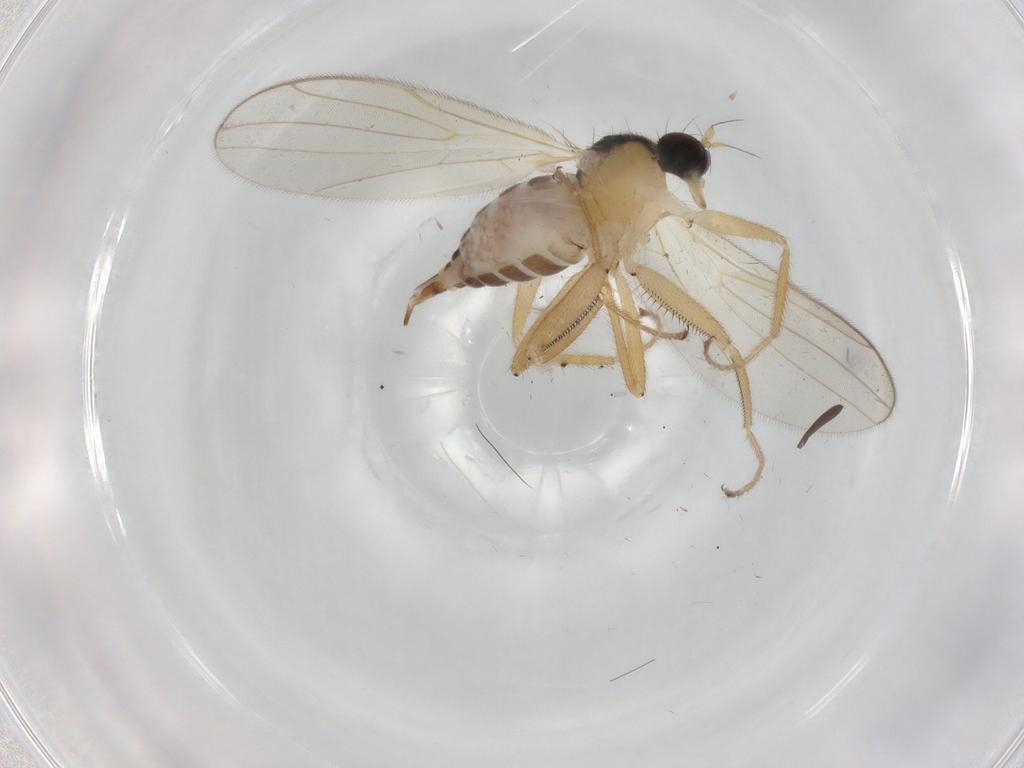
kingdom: Animalia
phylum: Arthropoda
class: Insecta
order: Diptera
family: Hybotidae
